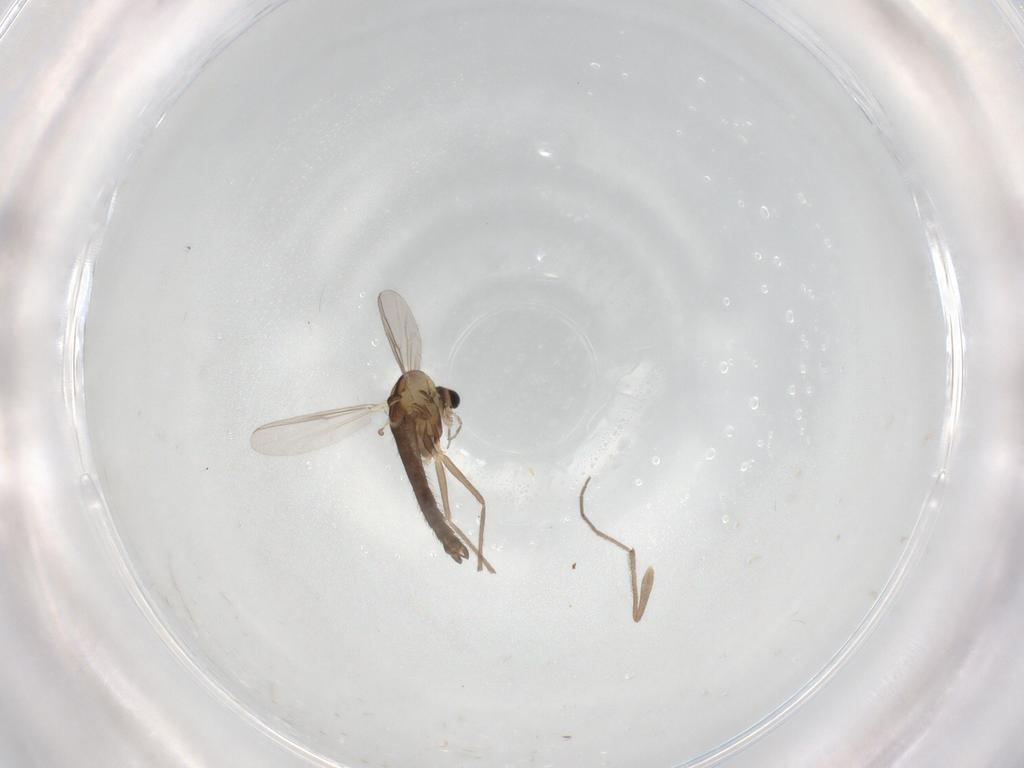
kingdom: Animalia
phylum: Arthropoda
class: Insecta
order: Diptera
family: Chironomidae
